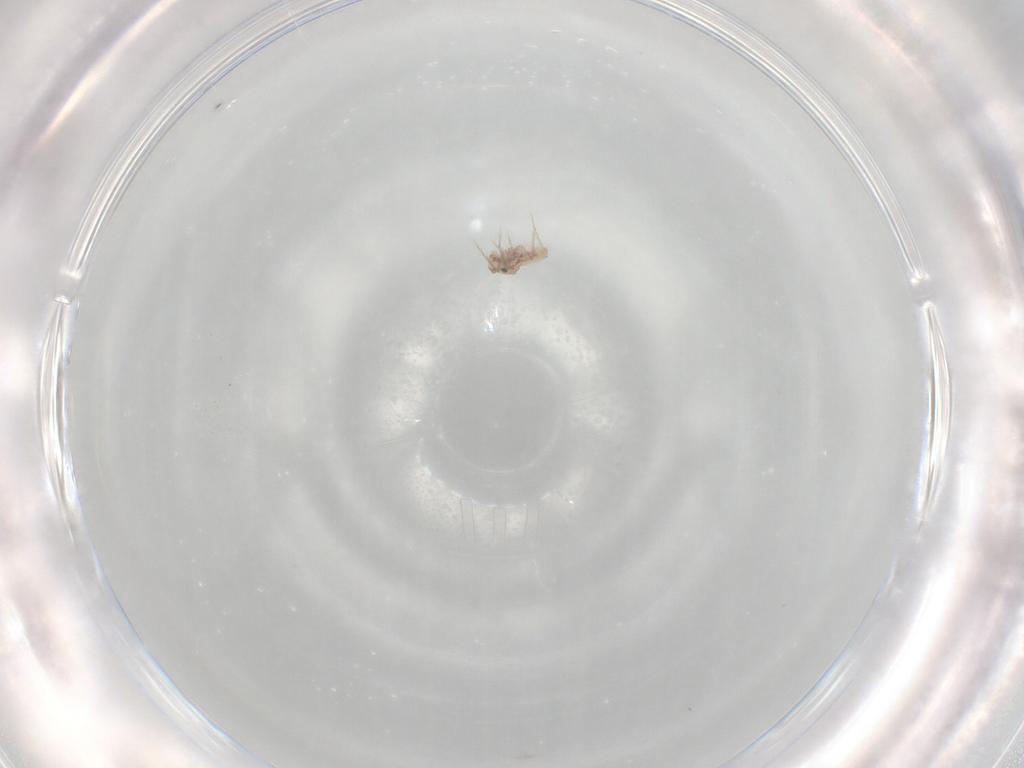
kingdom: Animalia
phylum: Arthropoda
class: Insecta
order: Psocodea
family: Lepidopsocidae
